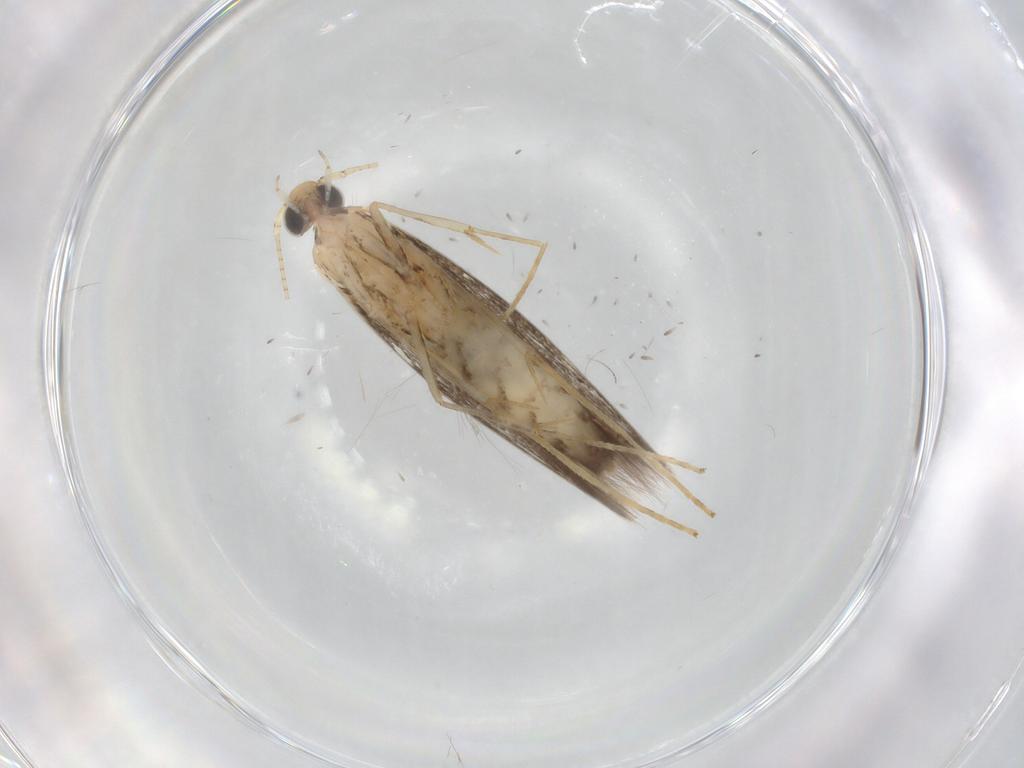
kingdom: Animalia
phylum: Arthropoda
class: Insecta
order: Lepidoptera
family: Gracillariidae
